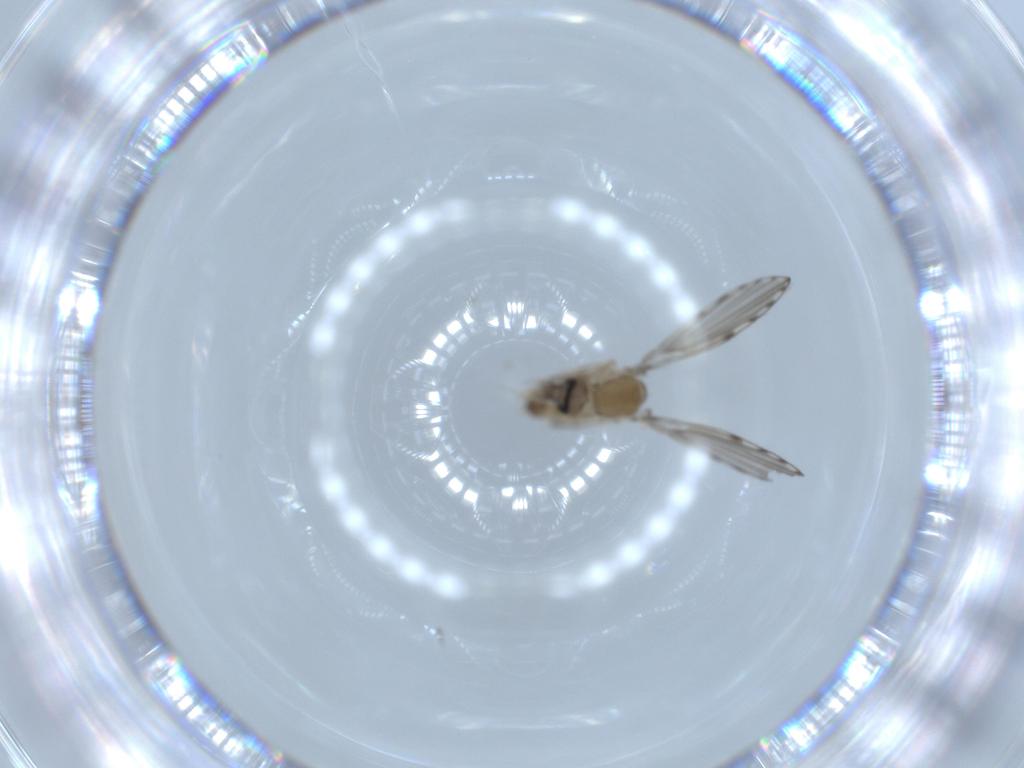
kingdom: Animalia
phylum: Arthropoda
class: Insecta
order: Diptera
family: Psychodidae
